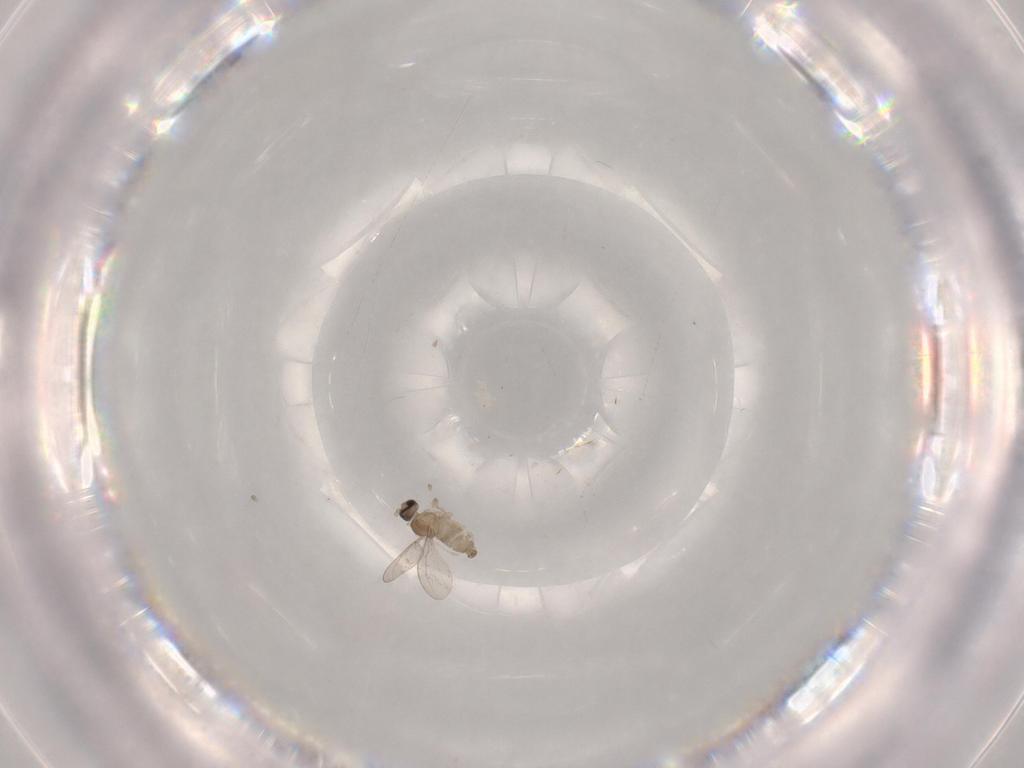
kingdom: Animalia
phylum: Arthropoda
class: Insecta
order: Diptera
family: Cecidomyiidae
